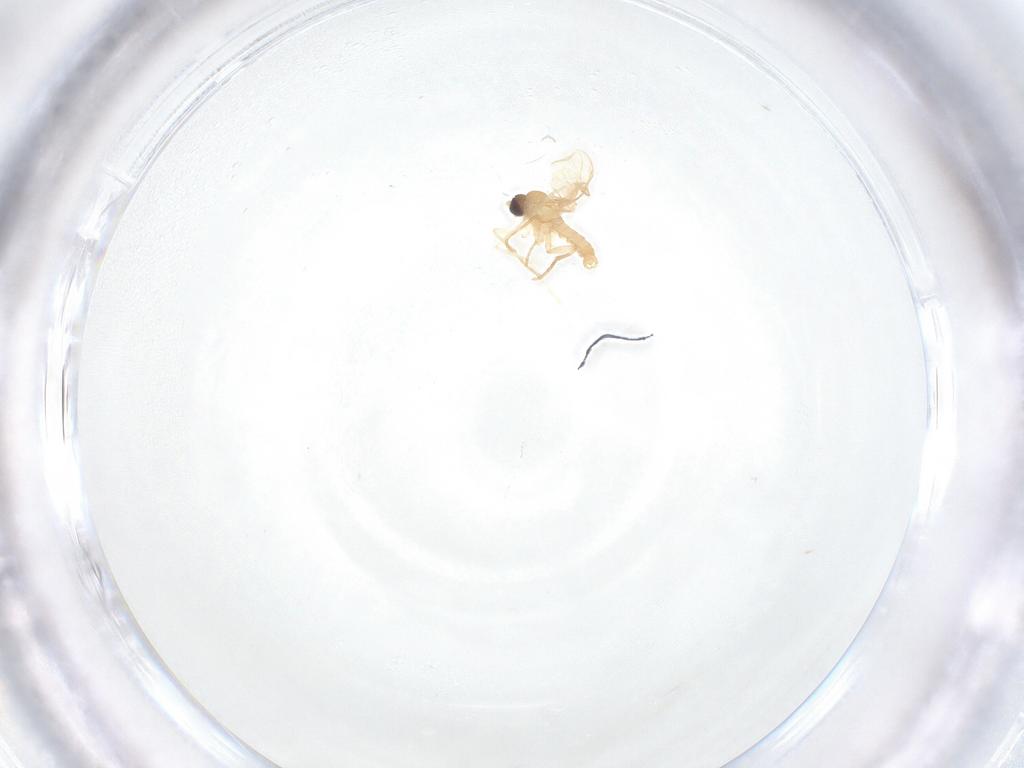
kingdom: Animalia
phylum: Arthropoda
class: Insecta
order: Diptera
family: Sciaridae
